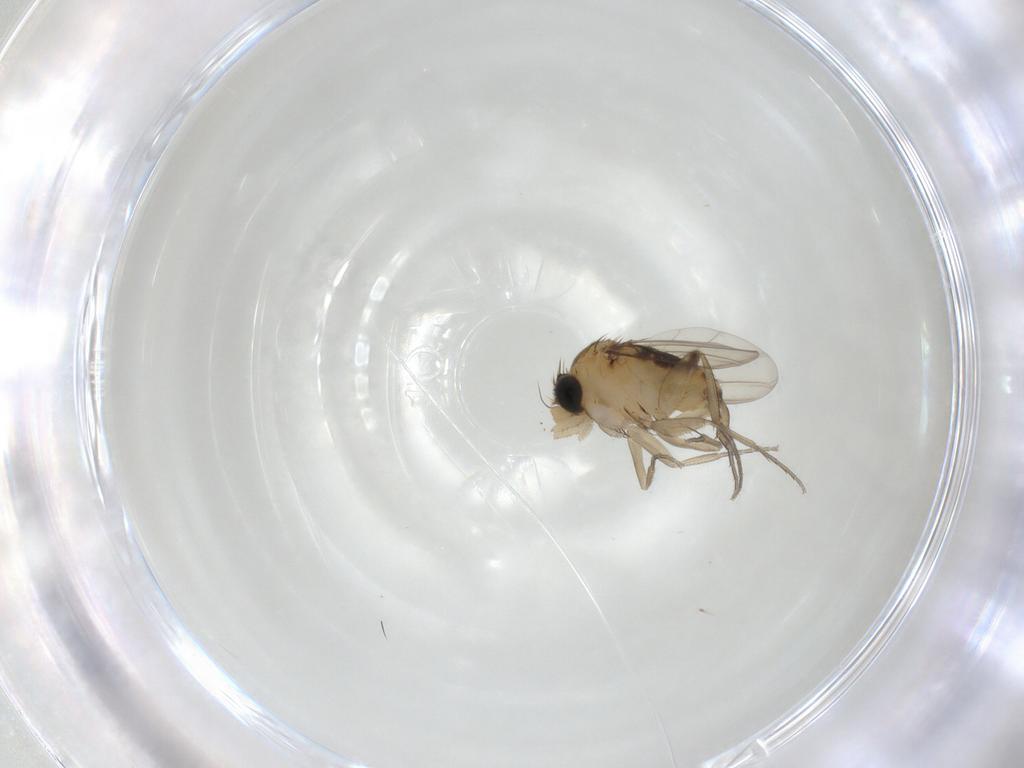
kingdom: Animalia
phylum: Arthropoda
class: Insecta
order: Diptera
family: Phoridae
